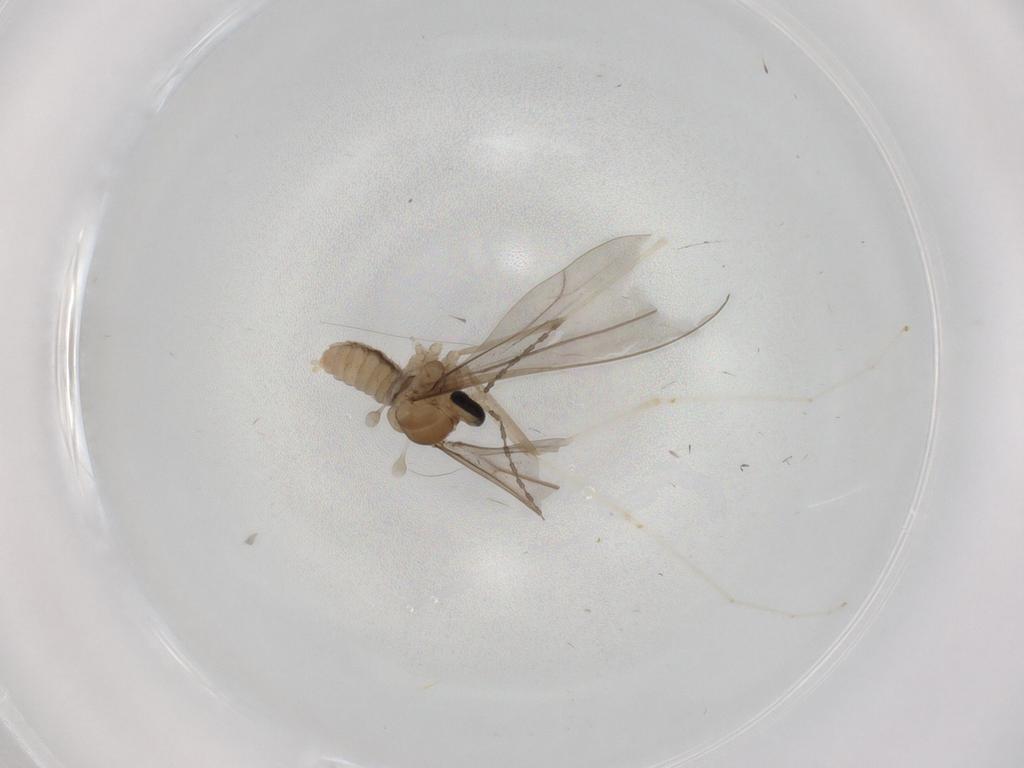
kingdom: Animalia
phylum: Arthropoda
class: Insecta
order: Diptera
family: Cecidomyiidae
